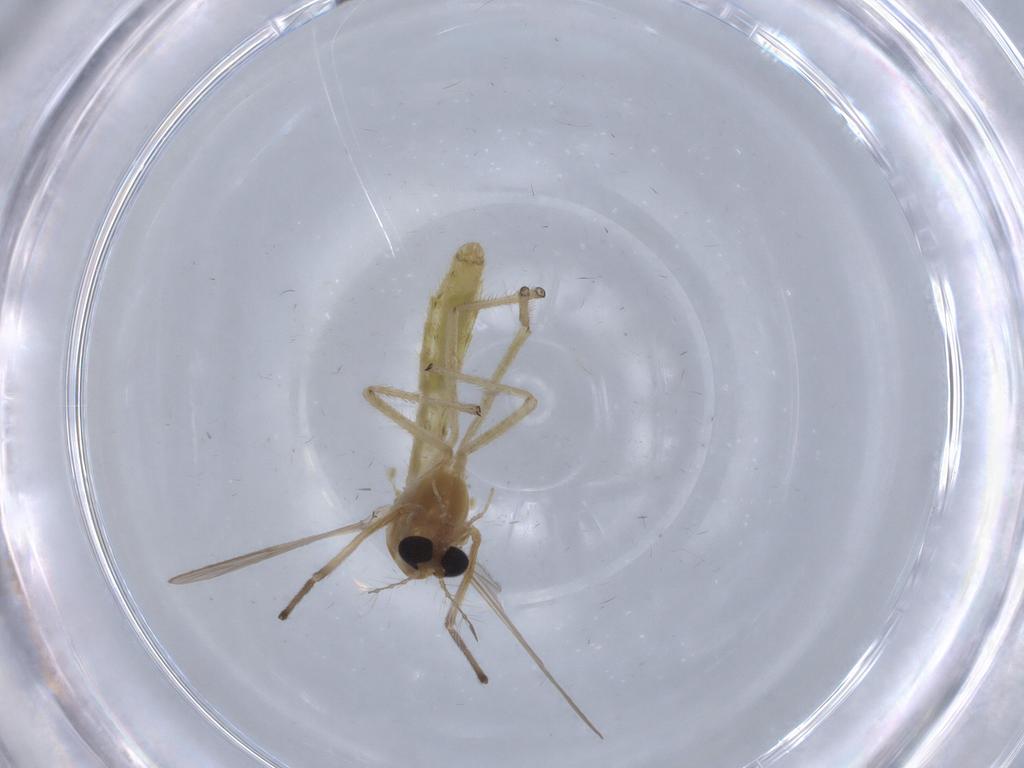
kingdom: Animalia
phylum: Arthropoda
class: Insecta
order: Diptera
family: Chironomidae
